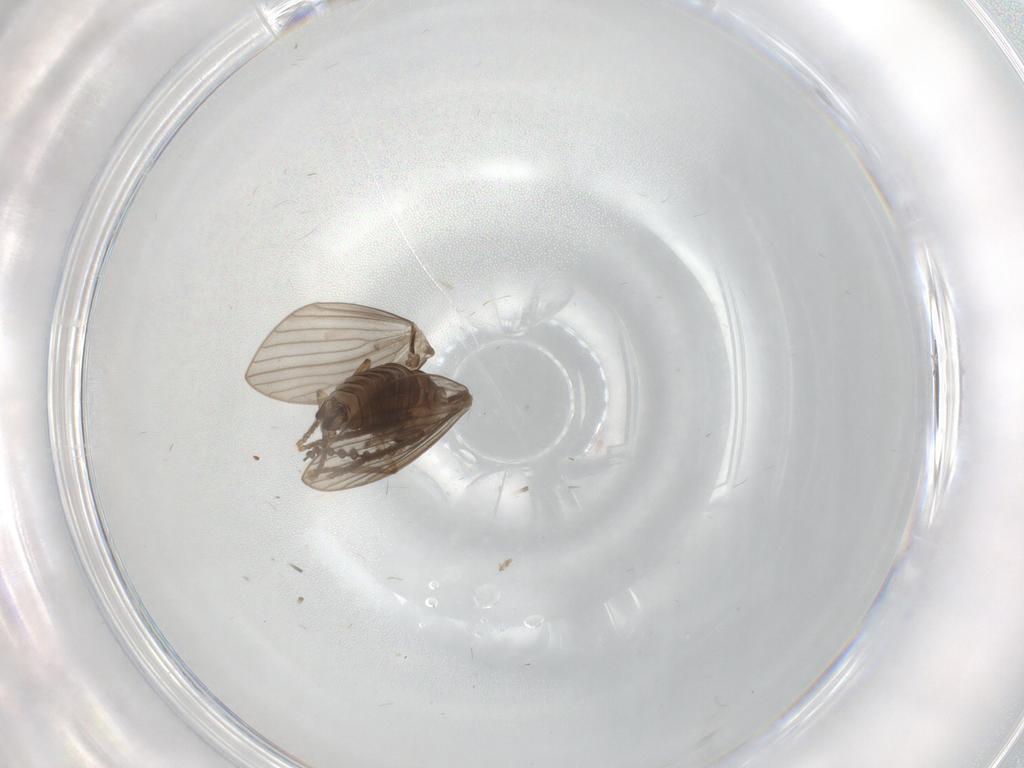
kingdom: Animalia
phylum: Arthropoda
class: Insecta
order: Diptera
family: Psychodidae
